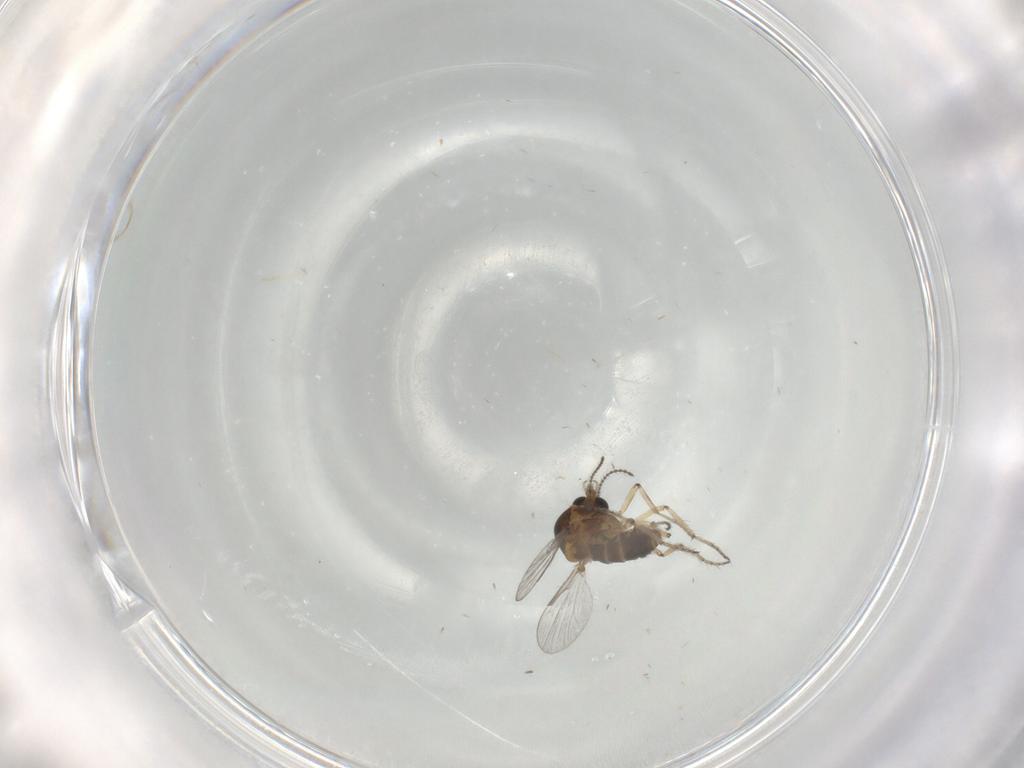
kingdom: Animalia
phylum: Arthropoda
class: Insecta
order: Diptera
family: Ceratopogonidae
